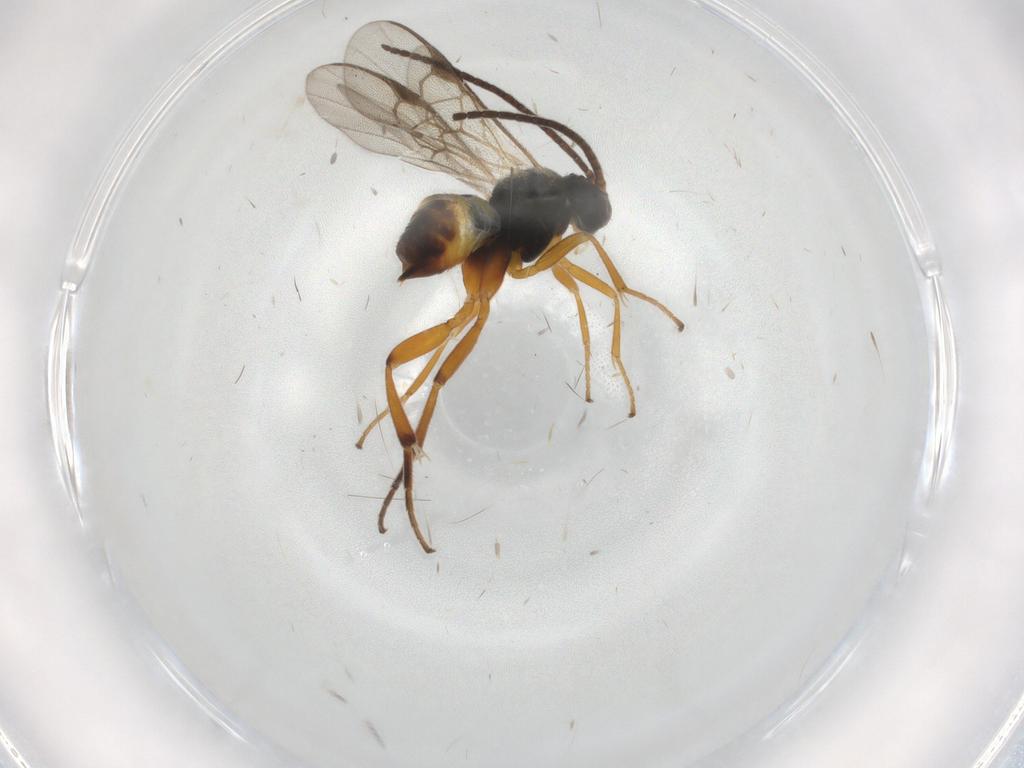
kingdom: Animalia
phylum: Arthropoda
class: Insecta
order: Hymenoptera
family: Braconidae
